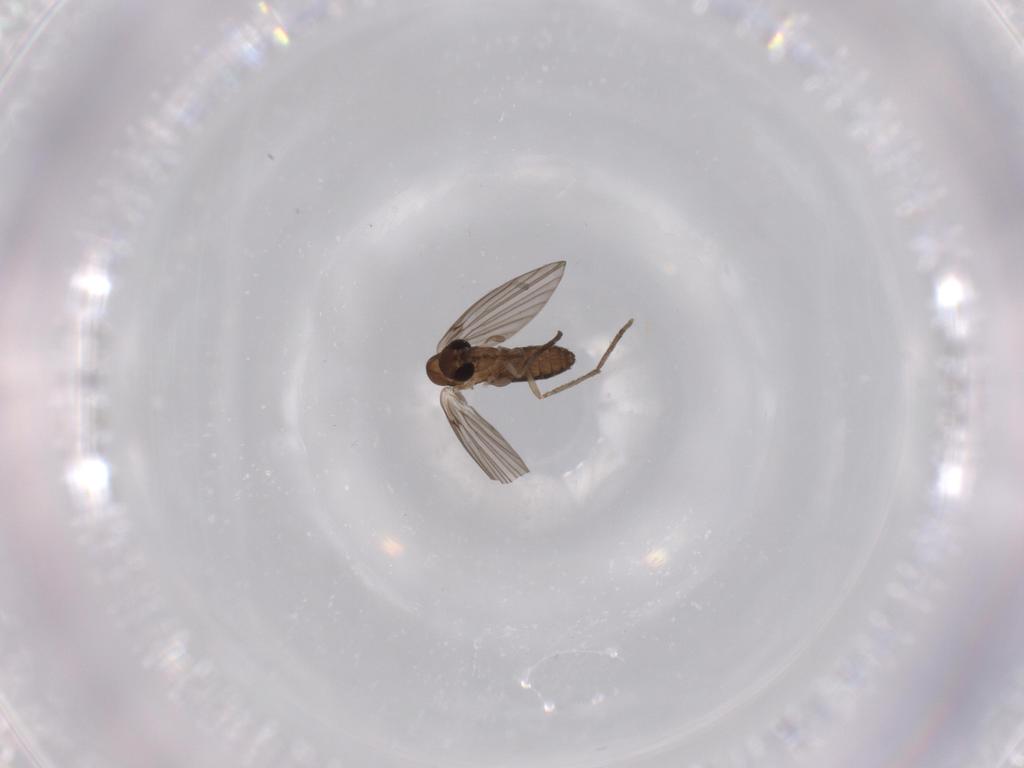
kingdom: Animalia
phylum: Arthropoda
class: Insecta
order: Diptera
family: Psychodidae
